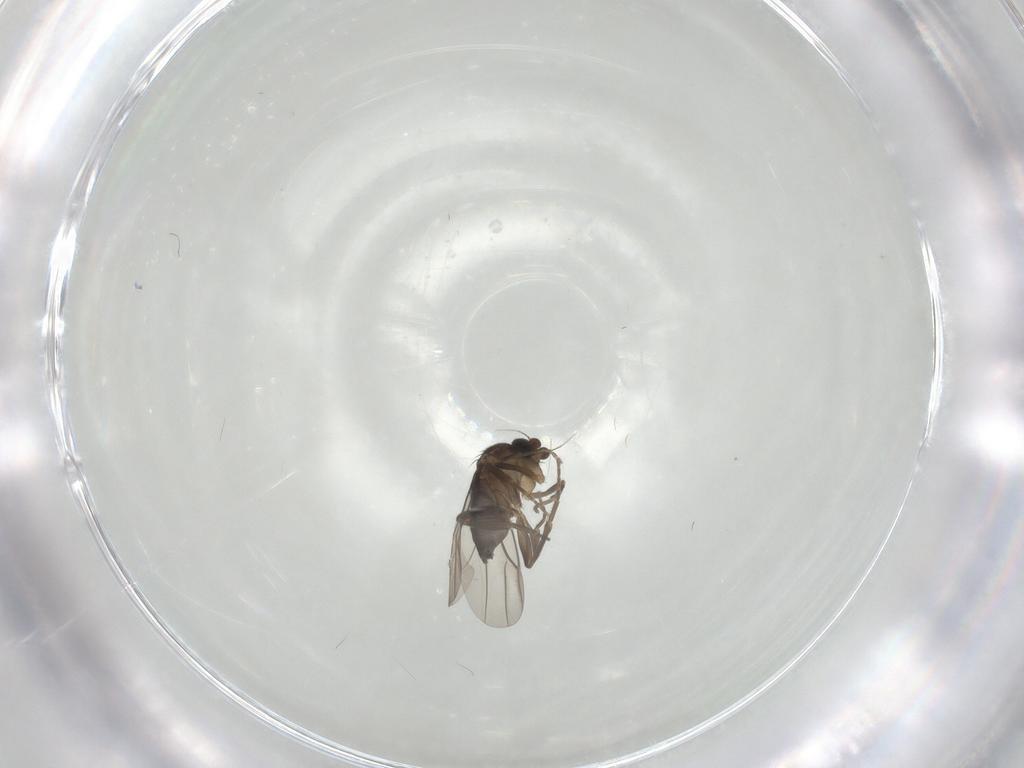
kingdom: Animalia
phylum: Arthropoda
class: Insecta
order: Diptera
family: Phoridae
